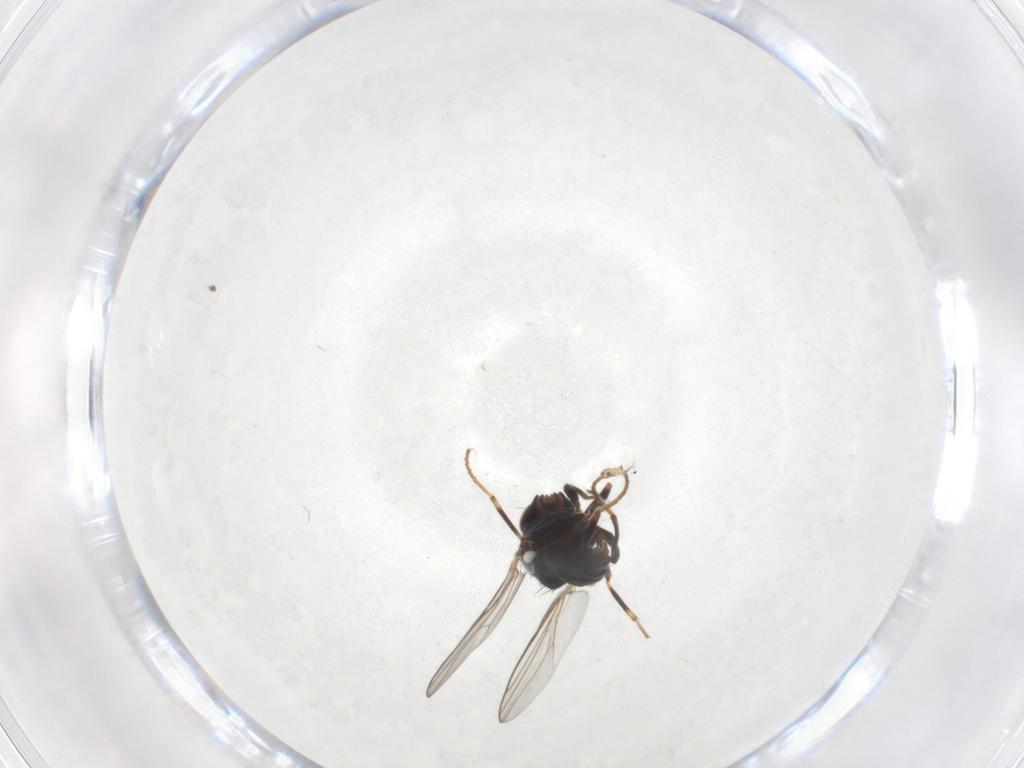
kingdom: Animalia
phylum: Arthropoda
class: Insecta
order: Diptera
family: Chloropidae
